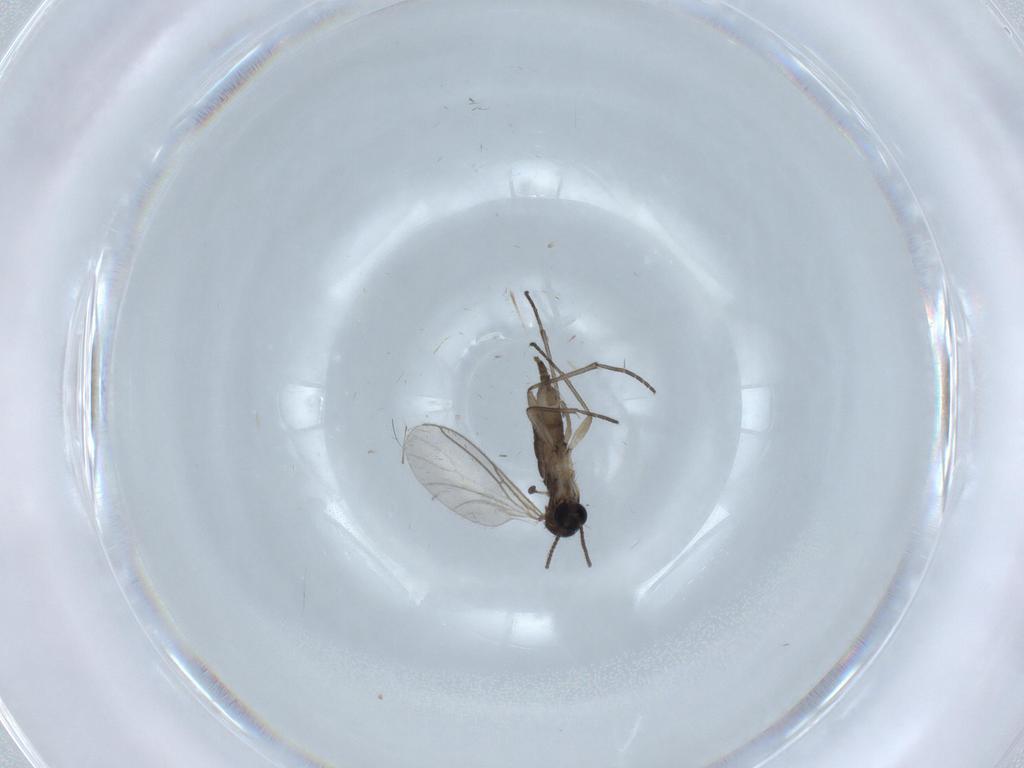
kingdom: Animalia
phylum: Arthropoda
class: Insecta
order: Diptera
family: Sciaridae
